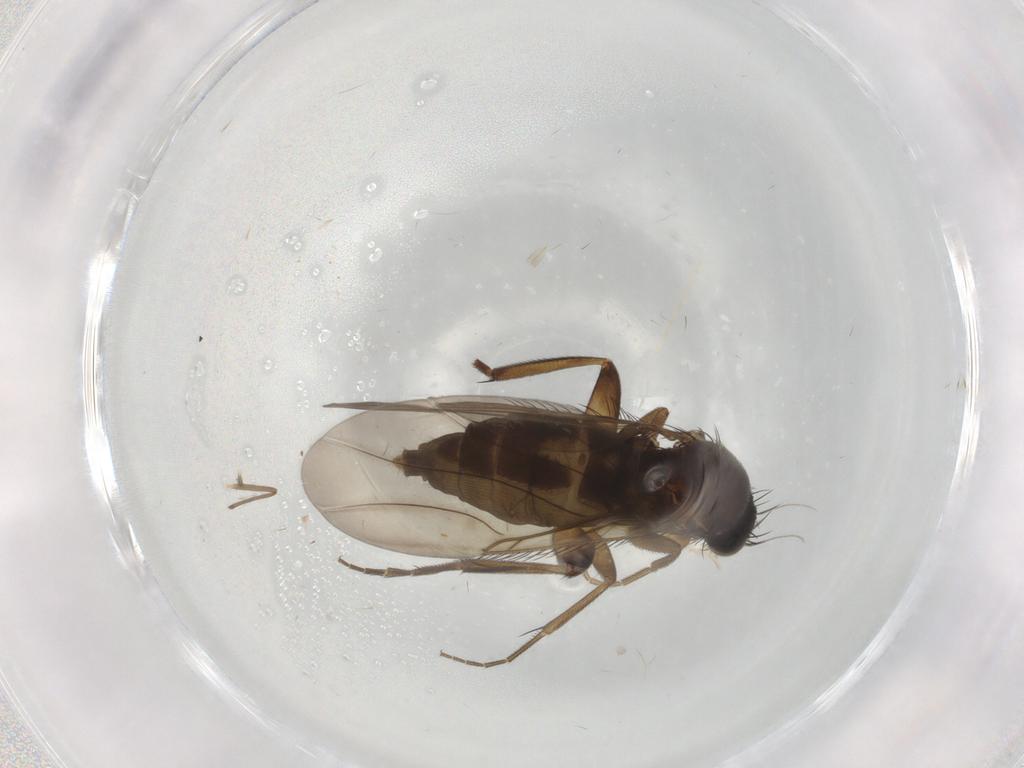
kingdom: Animalia
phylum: Arthropoda
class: Insecta
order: Diptera
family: Phoridae
